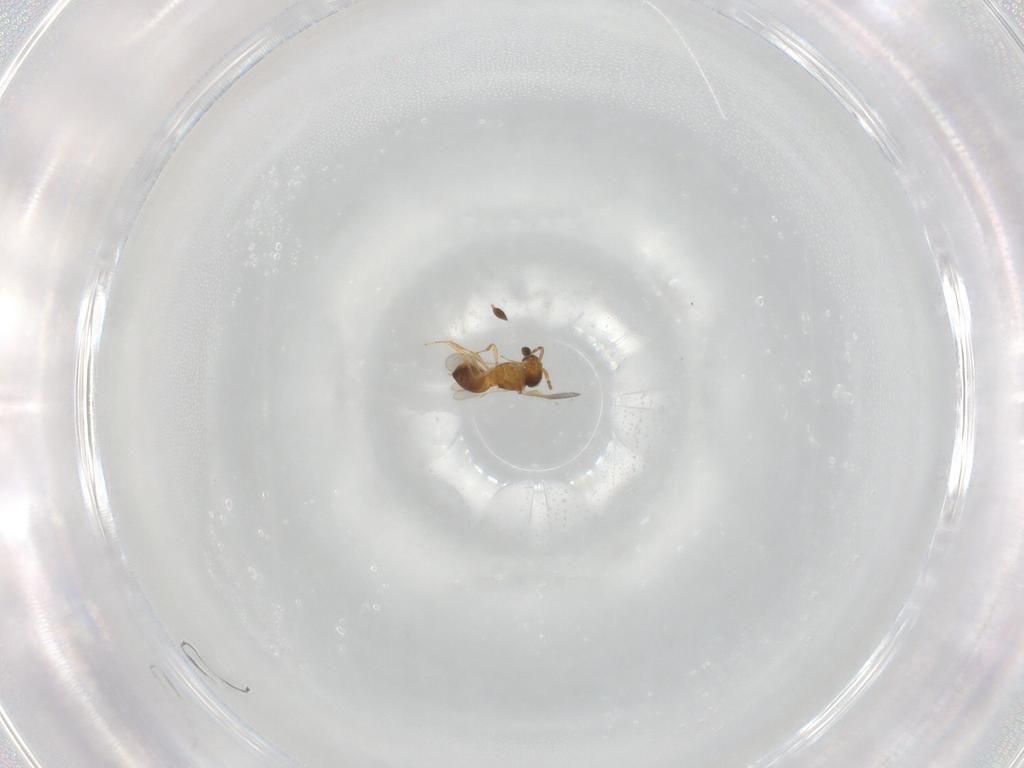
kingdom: Animalia
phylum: Arthropoda
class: Insecta
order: Hymenoptera
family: Scelionidae
